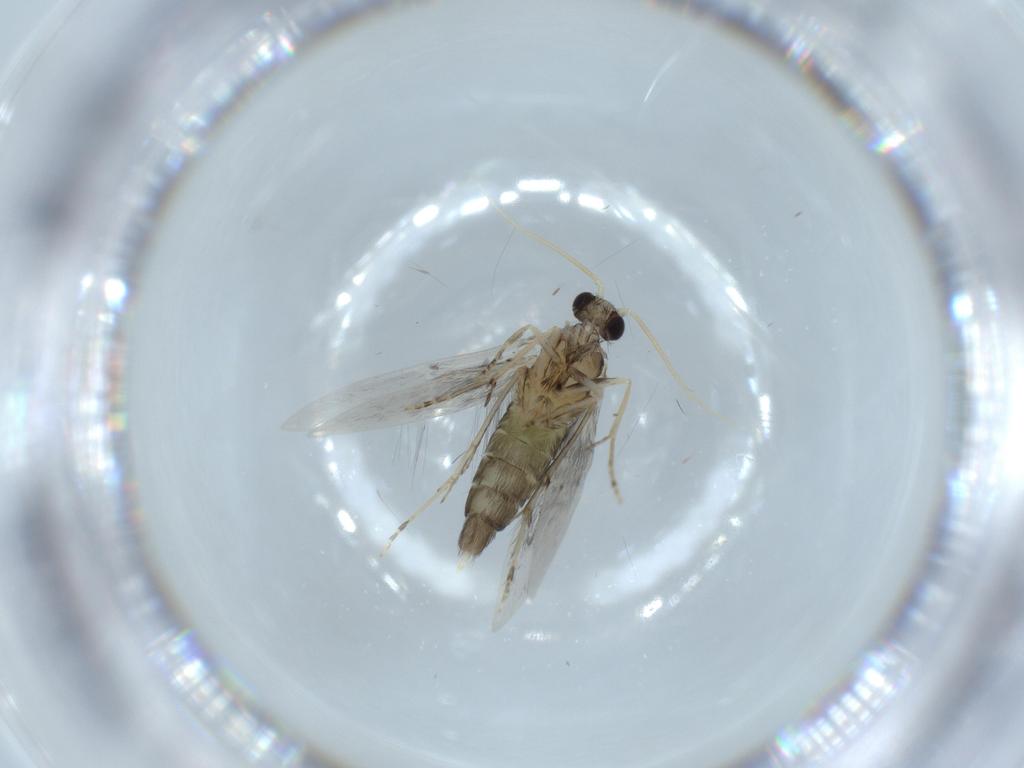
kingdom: Animalia
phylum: Arthropoda
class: Insecta
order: Trichoptera
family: Hydroptilidae
